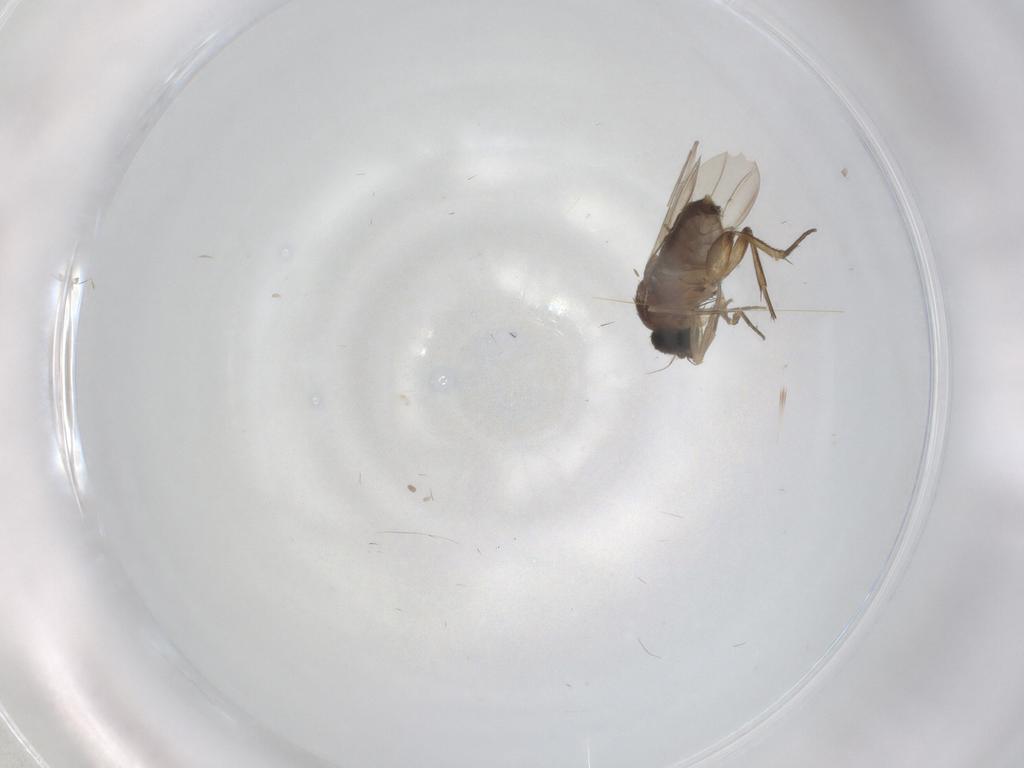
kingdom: Animalia
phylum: Arthropoda
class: Insecta
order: Diptera
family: Phoridae
